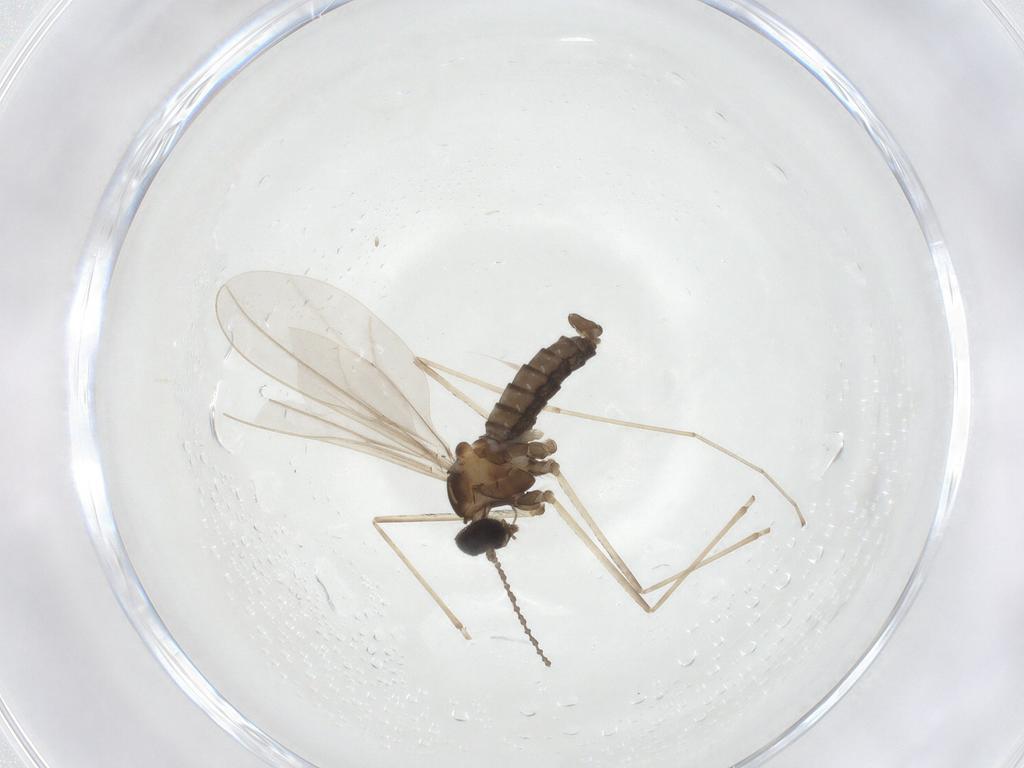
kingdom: Animalia
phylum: Arthropoda
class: Insecta
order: Diptera
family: Cecidomyiidae
